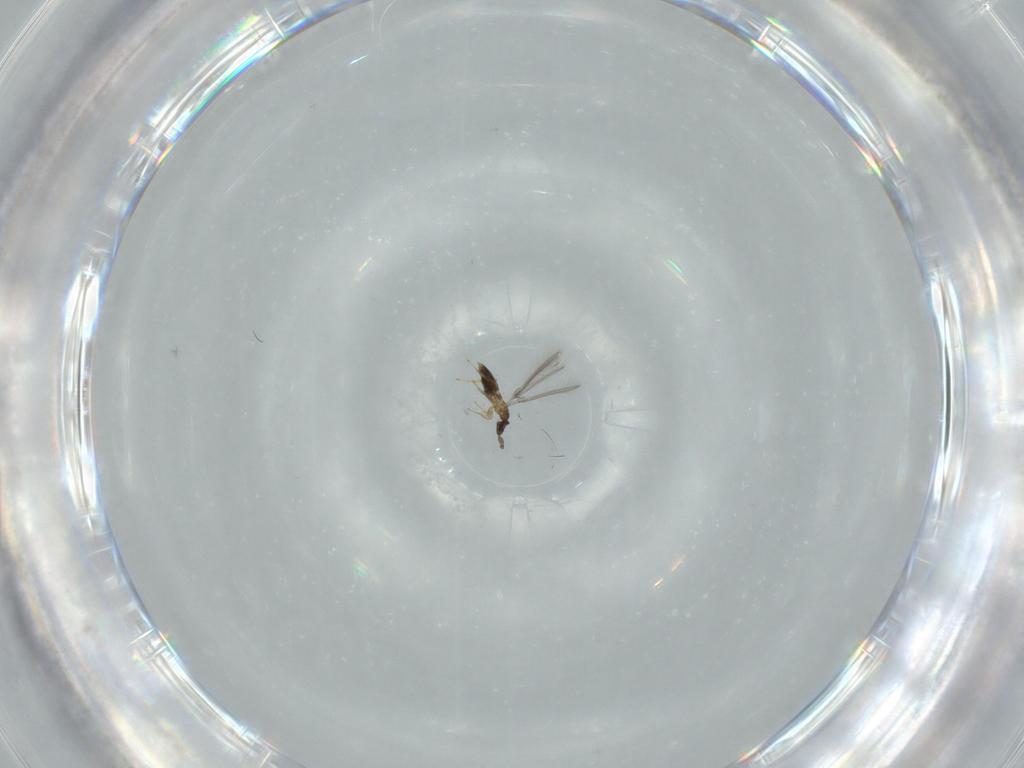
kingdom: Animalia
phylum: Arthropoda
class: Insecta
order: Hymenoptera
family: Mymaridae
